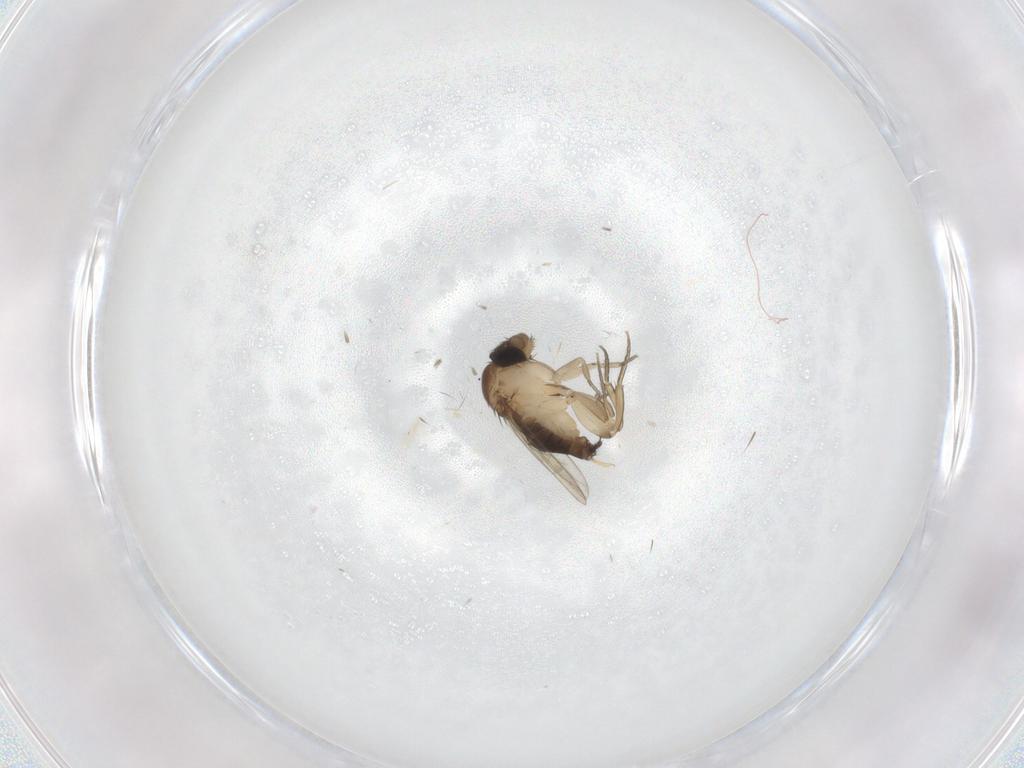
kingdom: Animalia
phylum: Arthropoda
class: Insecta
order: Diptera
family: Phoridae
